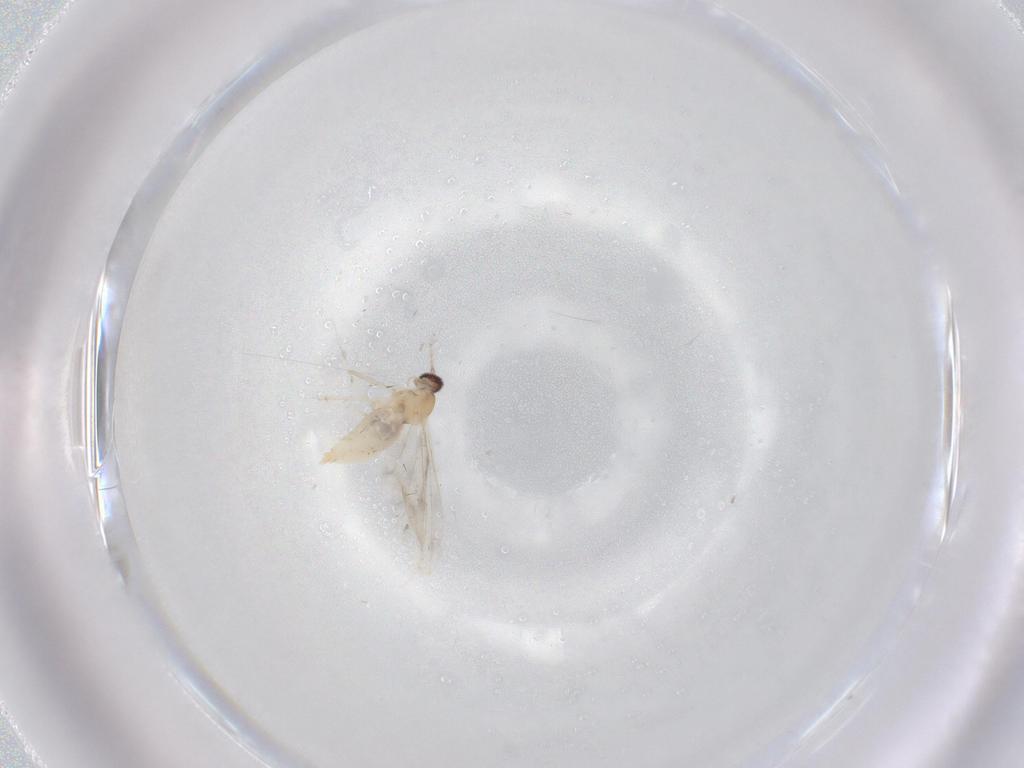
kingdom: Animalia
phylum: Arthropoda
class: Insecta
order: Diptera
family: Cecidomyiidae
